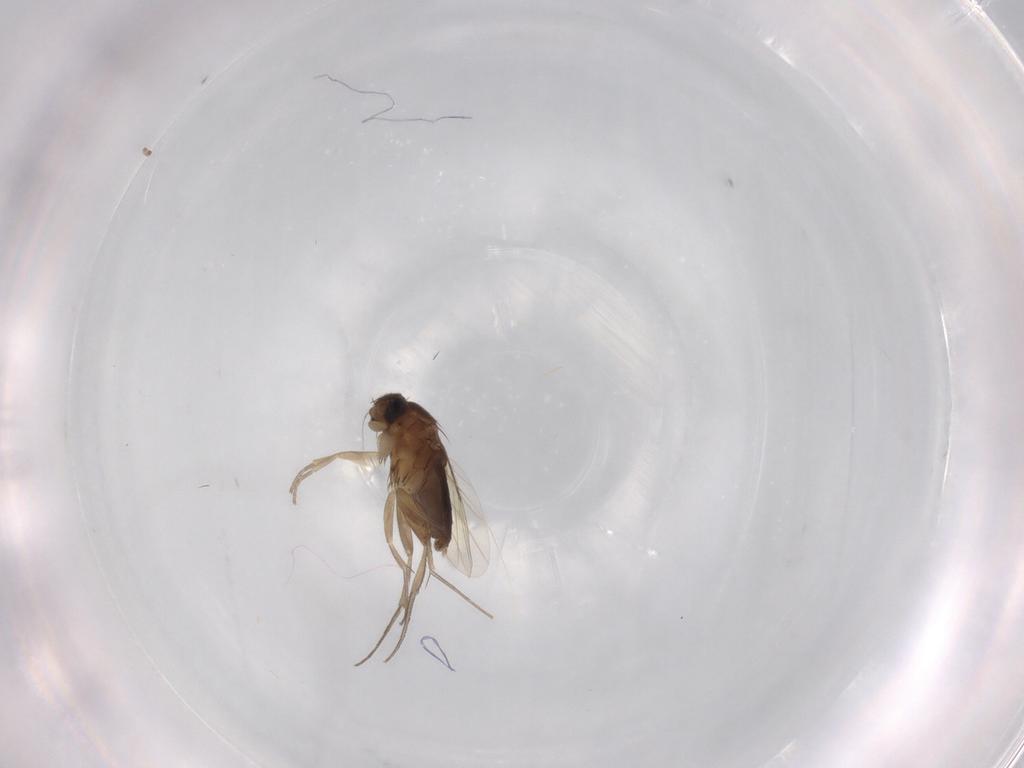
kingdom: Animalia
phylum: Arthropoda
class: Insecta
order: Diptera
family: Phoridae
